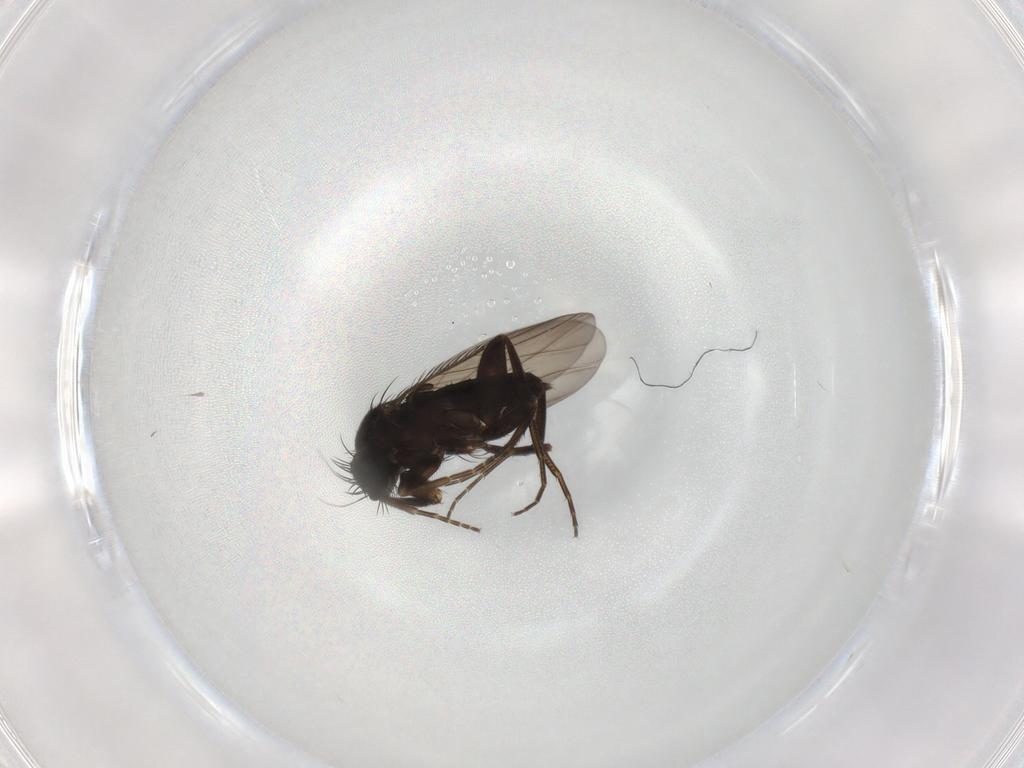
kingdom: Animalia
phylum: Arthropoda
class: Insecta
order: Diptera
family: Phoridae
